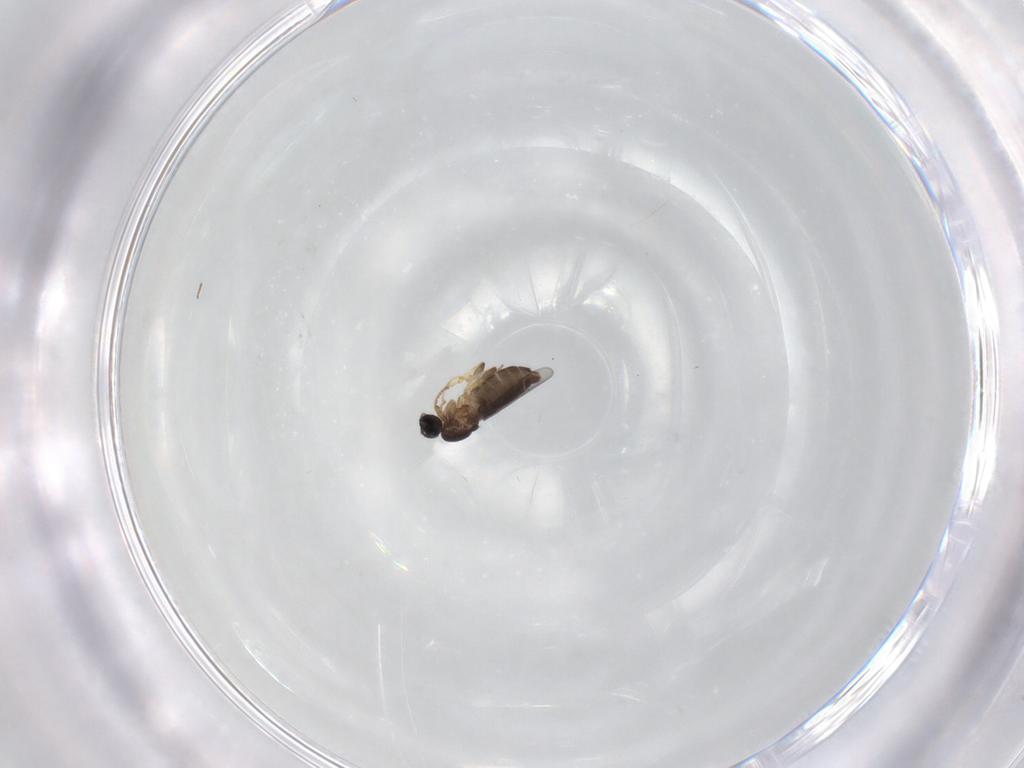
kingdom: Animalia
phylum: Arthropoda
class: Insecta
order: Diptera
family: Scatopsidae
